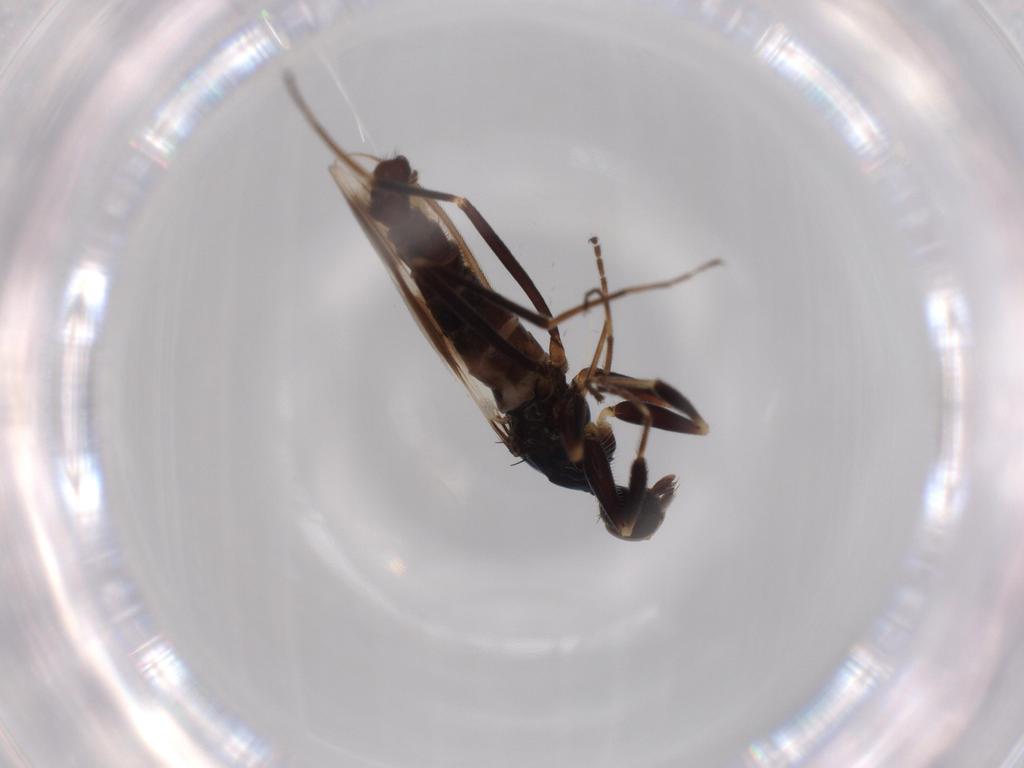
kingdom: Animalia
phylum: Arthropoda
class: Insecta
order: Diptera
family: Hybotidae
